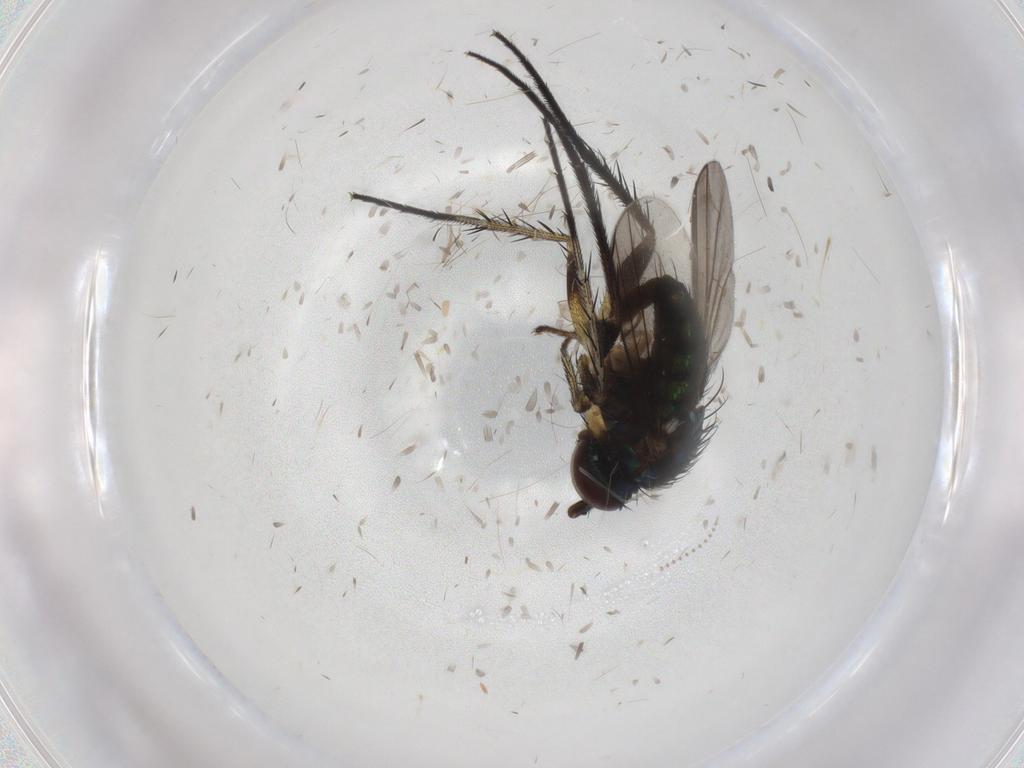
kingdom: Animalia
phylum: Arthropoda
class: Insecta
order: Diptera
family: Dolichopodidae
